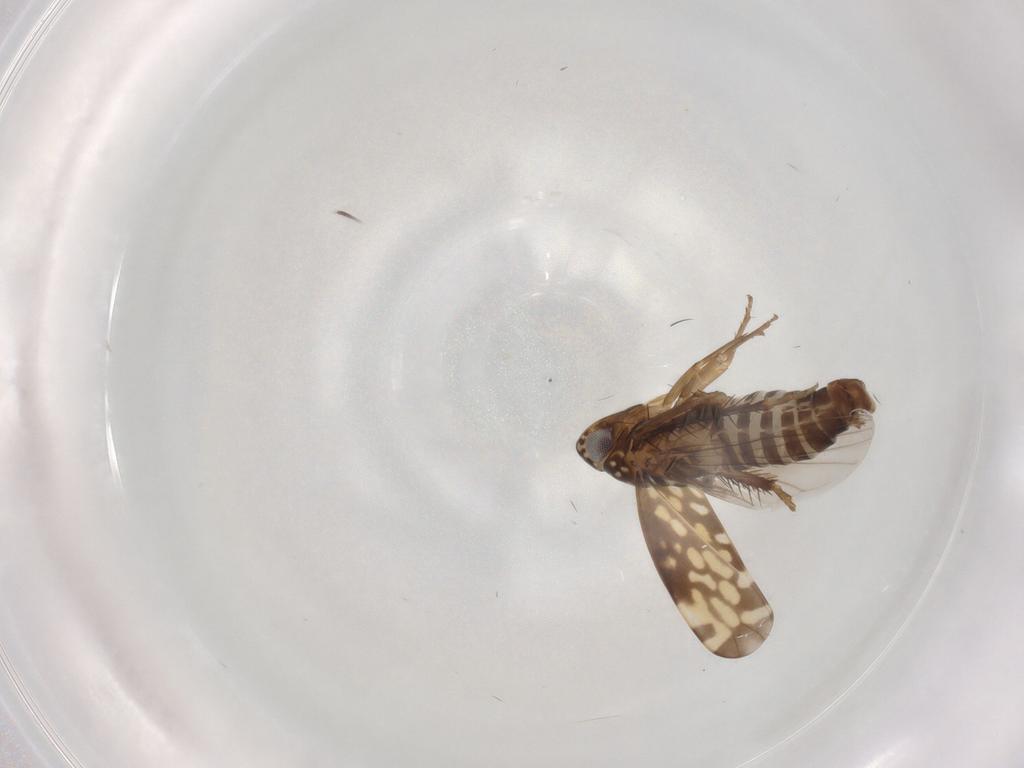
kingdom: Animalia
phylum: Arthropoda
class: Insecta
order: Hemiptera
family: Cicadellidae
